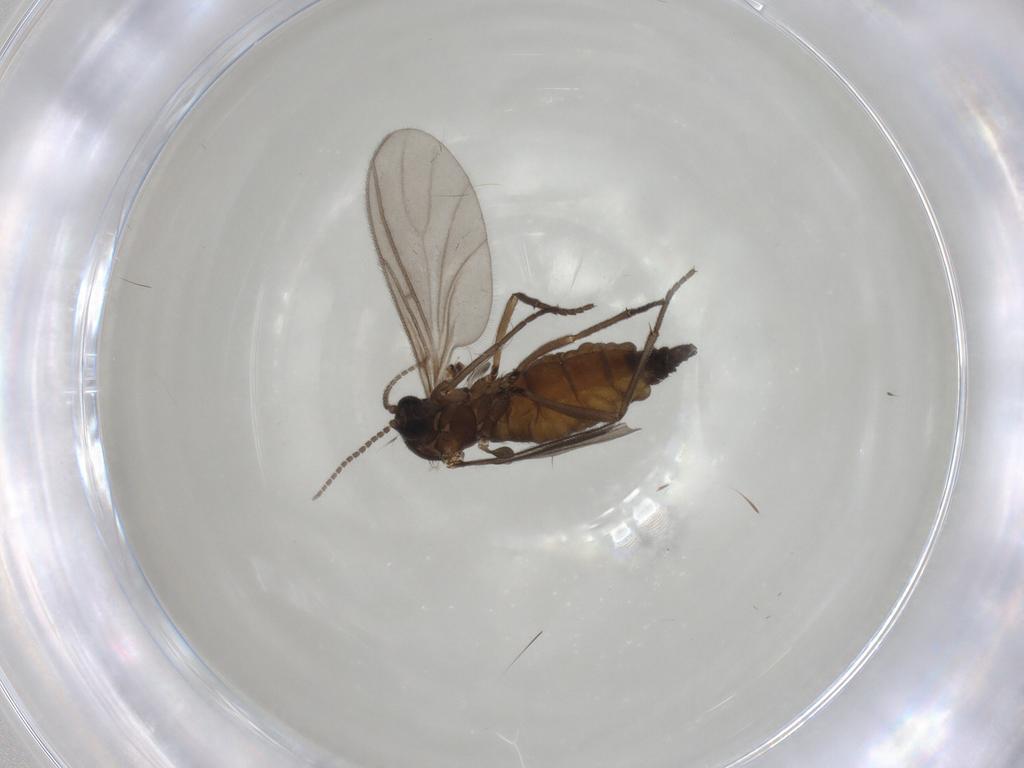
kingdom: Animalia
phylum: Arthropoda
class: Insecta
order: Diptera
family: Sciaridae
